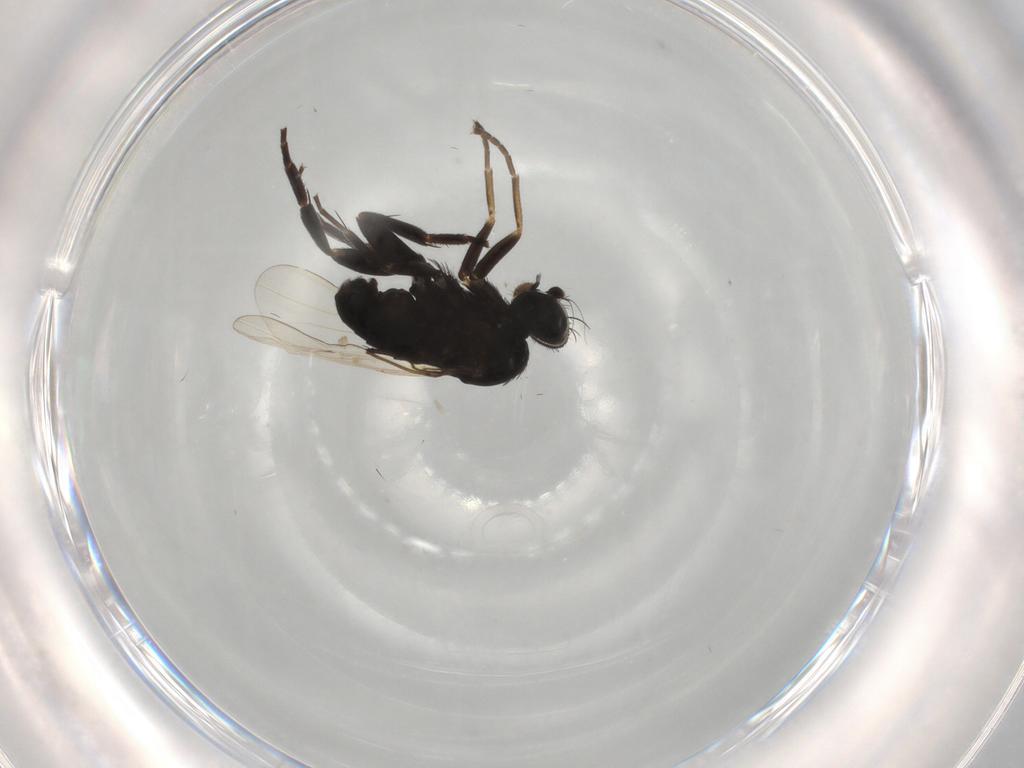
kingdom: Animalia
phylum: Arthropoda
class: Insecta
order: Diptera
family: Phoridae
